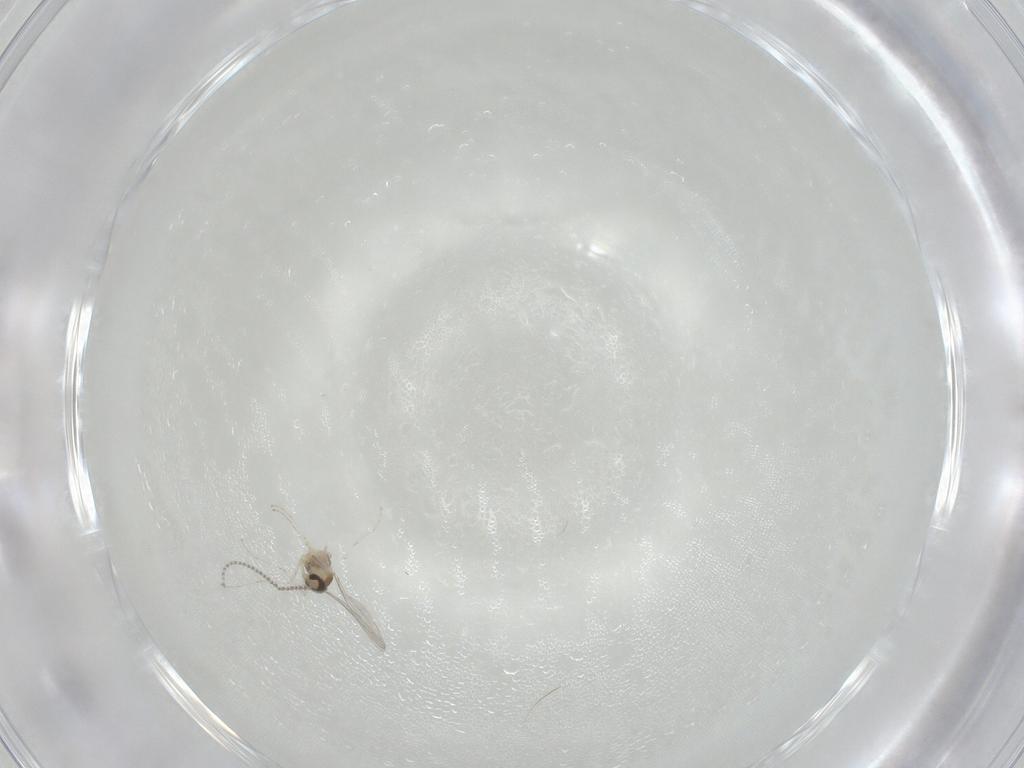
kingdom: Animalia
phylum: Arthropoda
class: Insecta
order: Diptera
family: Cecidomyiidae
